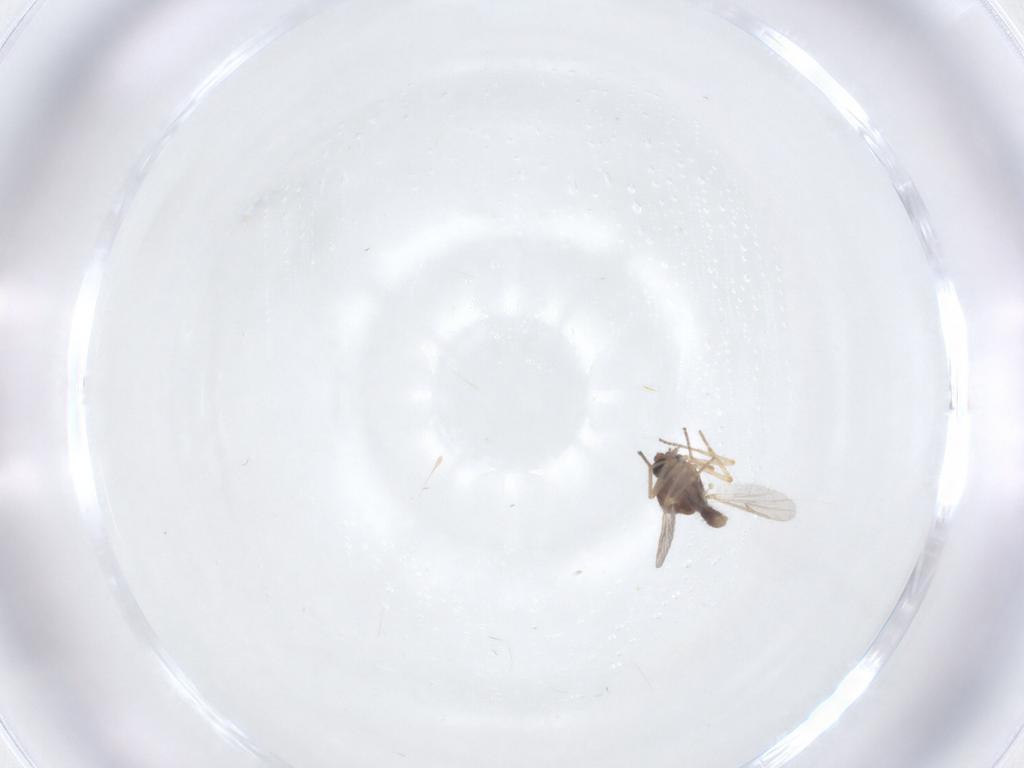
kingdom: Animalia
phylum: Arthropoda
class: Insecta
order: Diptera
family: Ceratopogonidae
